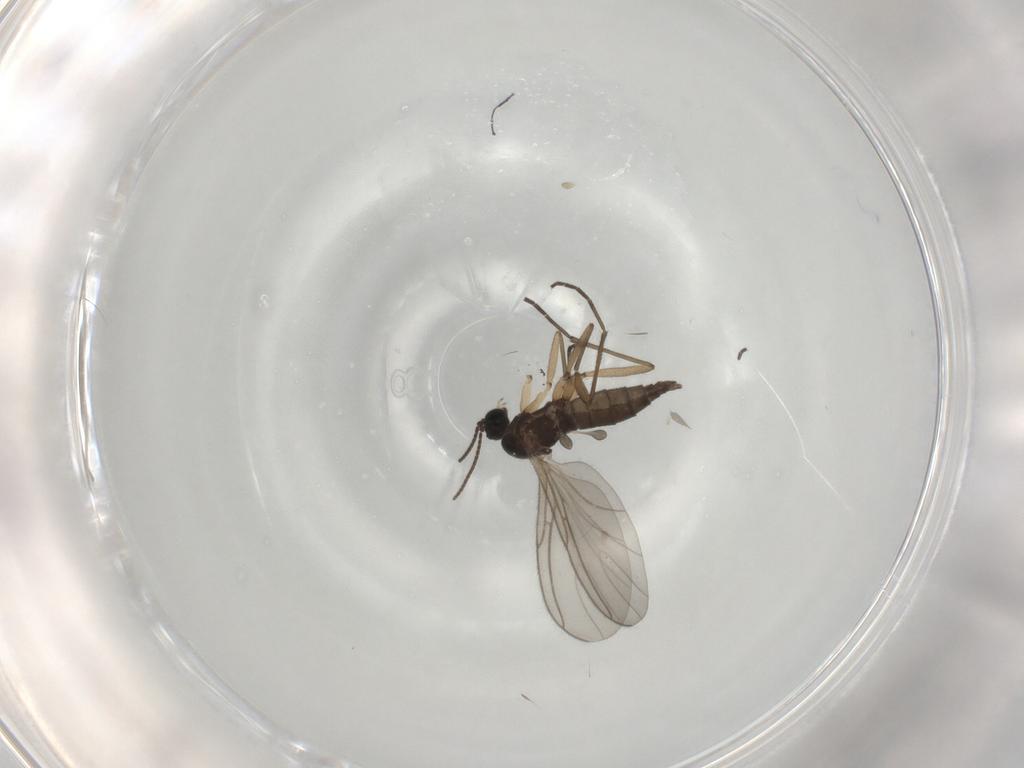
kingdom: Animalia
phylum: Arthropoda
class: Insecta
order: Diptera
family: Sciaridae
